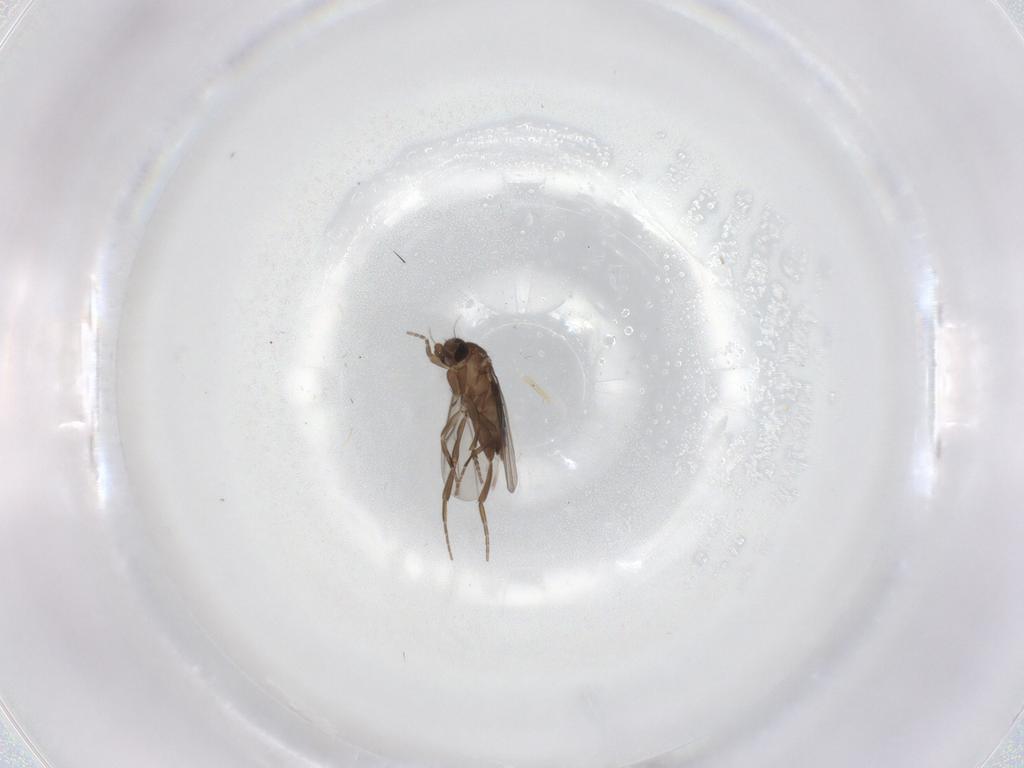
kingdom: Animalia
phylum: Arthropoda
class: Insecta
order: Diptera
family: Phoridae
